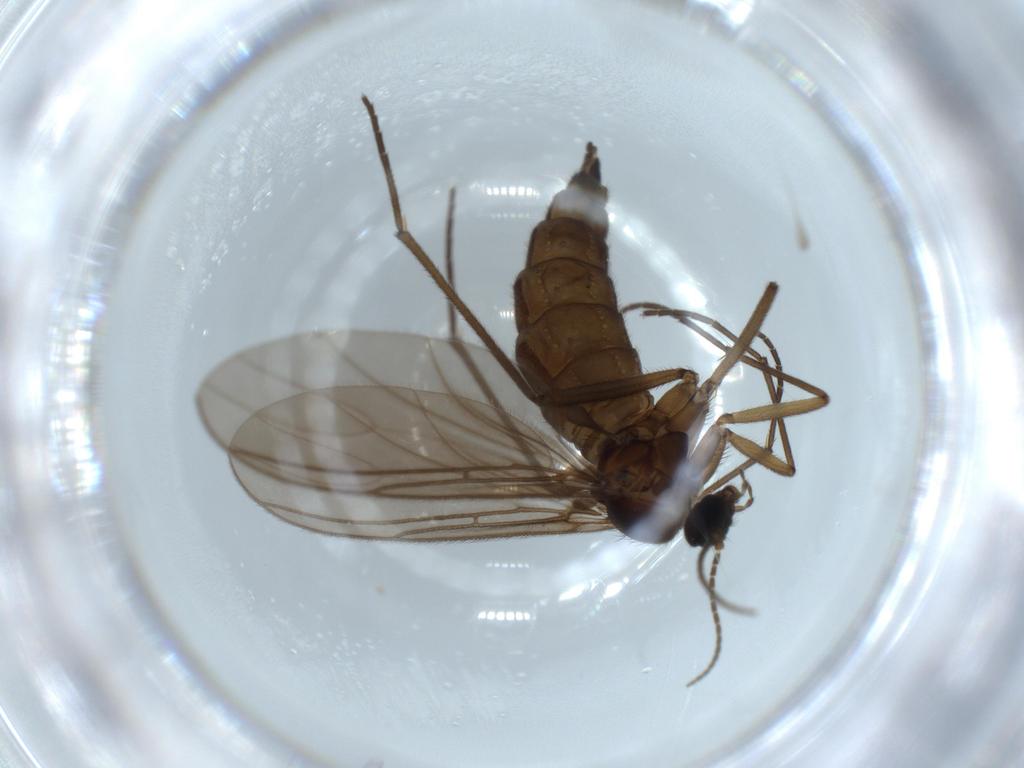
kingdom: Animalia
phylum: Arthropoda
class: Insecta
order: Diptera
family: Sciaridae
